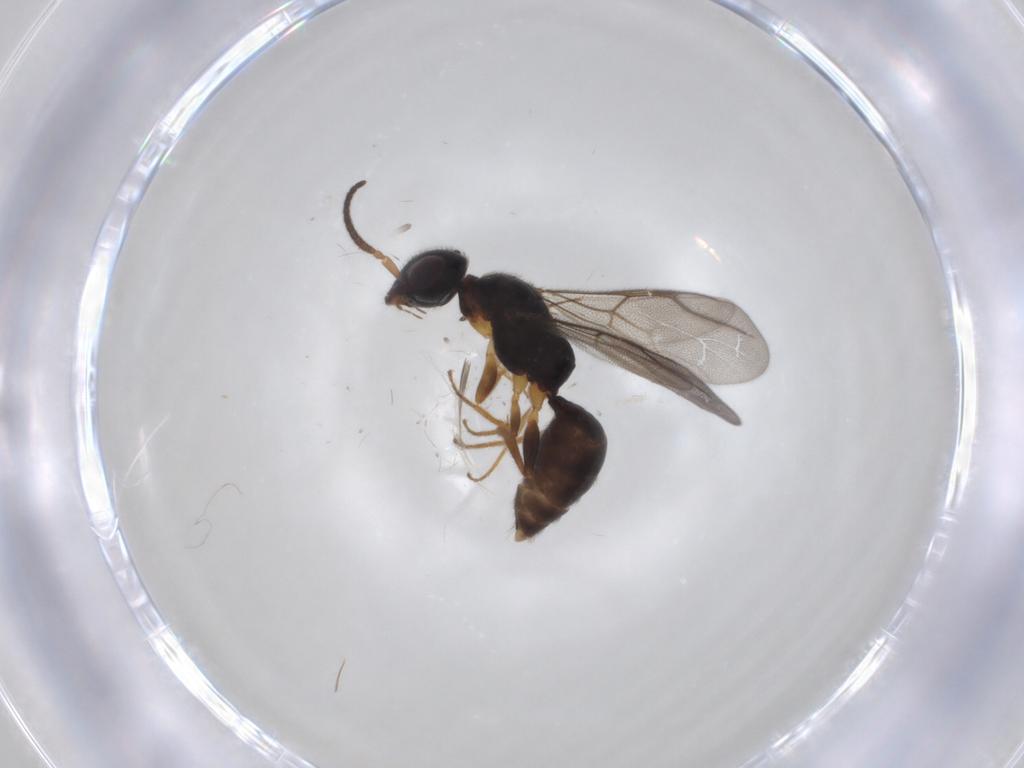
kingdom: Animalia
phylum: Arthropoda
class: Insecta
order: Hymenoptera
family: Bethylidae
